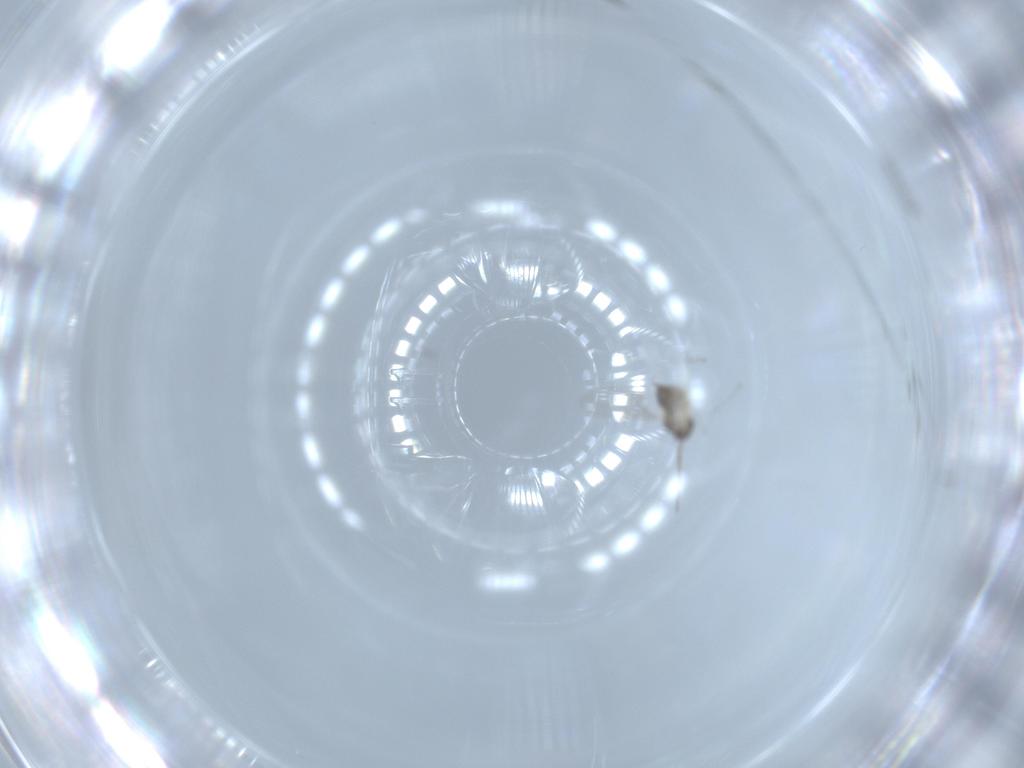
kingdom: Animalia
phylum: Arthropoda
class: Insecta
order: Diptera
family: Cecidomyiidae
